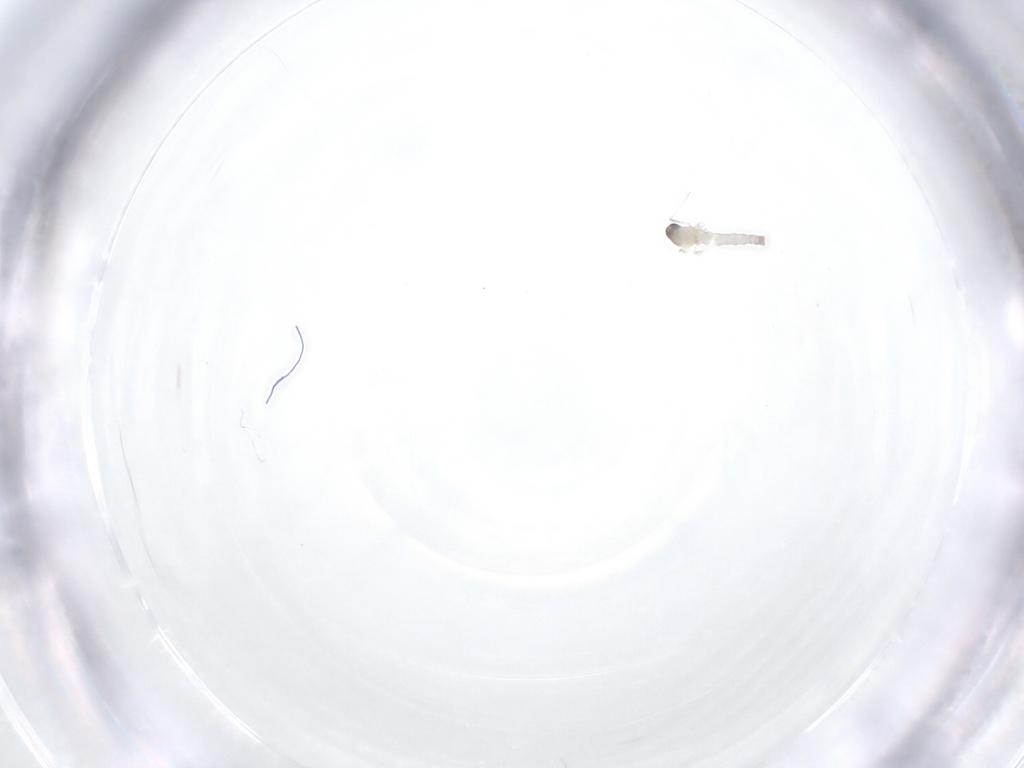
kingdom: Animalia
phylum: Arthropoda
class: Insecta
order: Diptera
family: Cecidomyiidae
